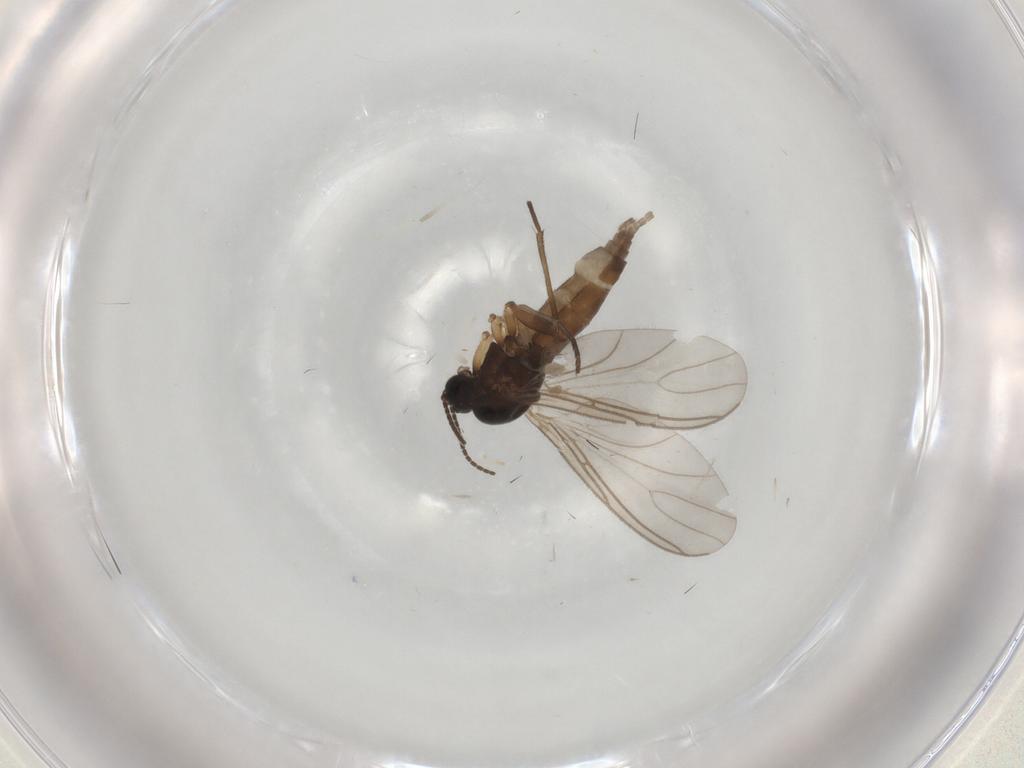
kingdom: Animalia
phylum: Arthropoda
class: Insecta
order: Diptera
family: Sciaridae
